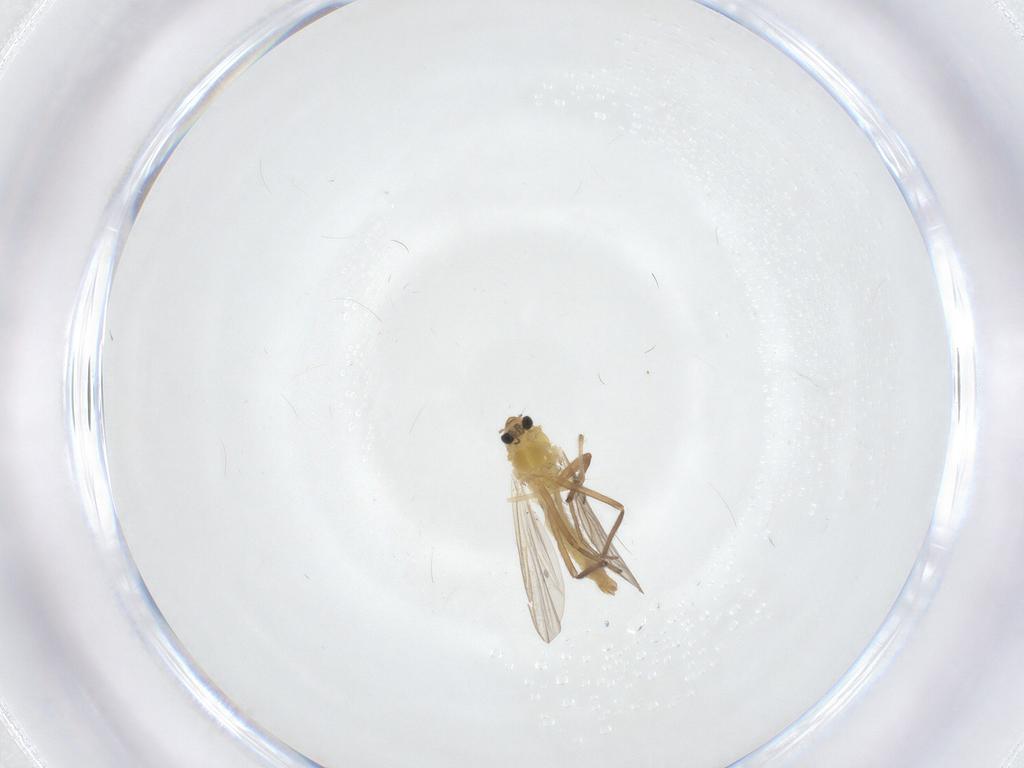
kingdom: Animalia
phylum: Arthropoda
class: Insecta
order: Diptera
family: Chironomidae
